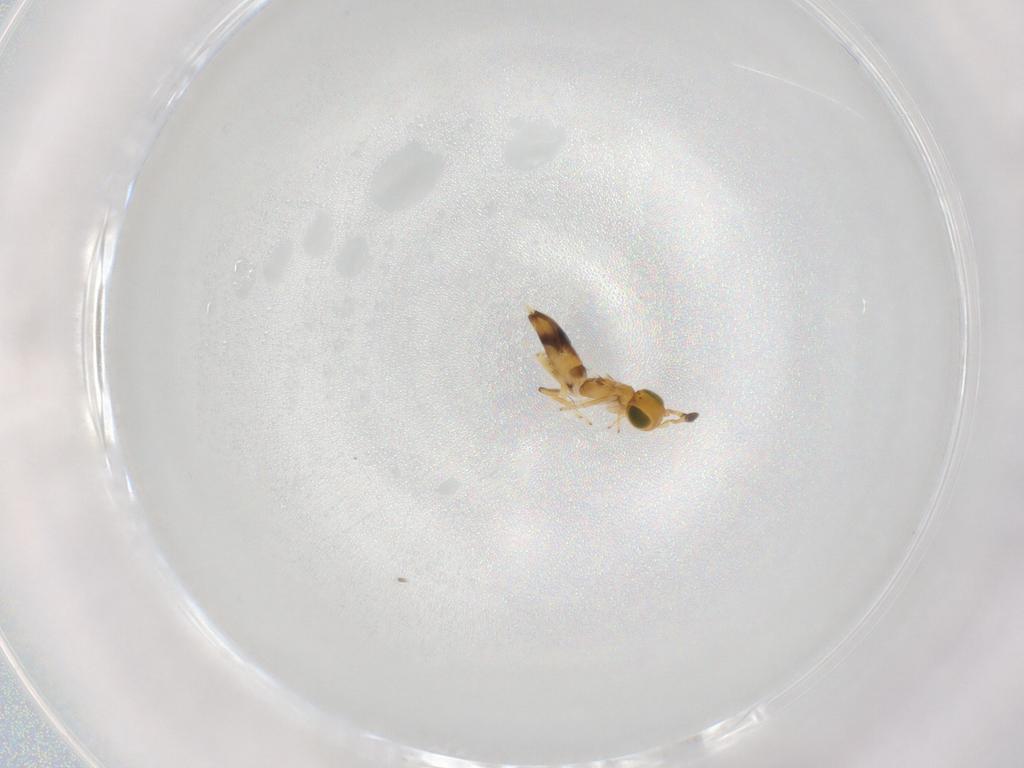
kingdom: Animalia
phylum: Arthropoda
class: Insecta
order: Hymenoptera
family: Encyrtidae
